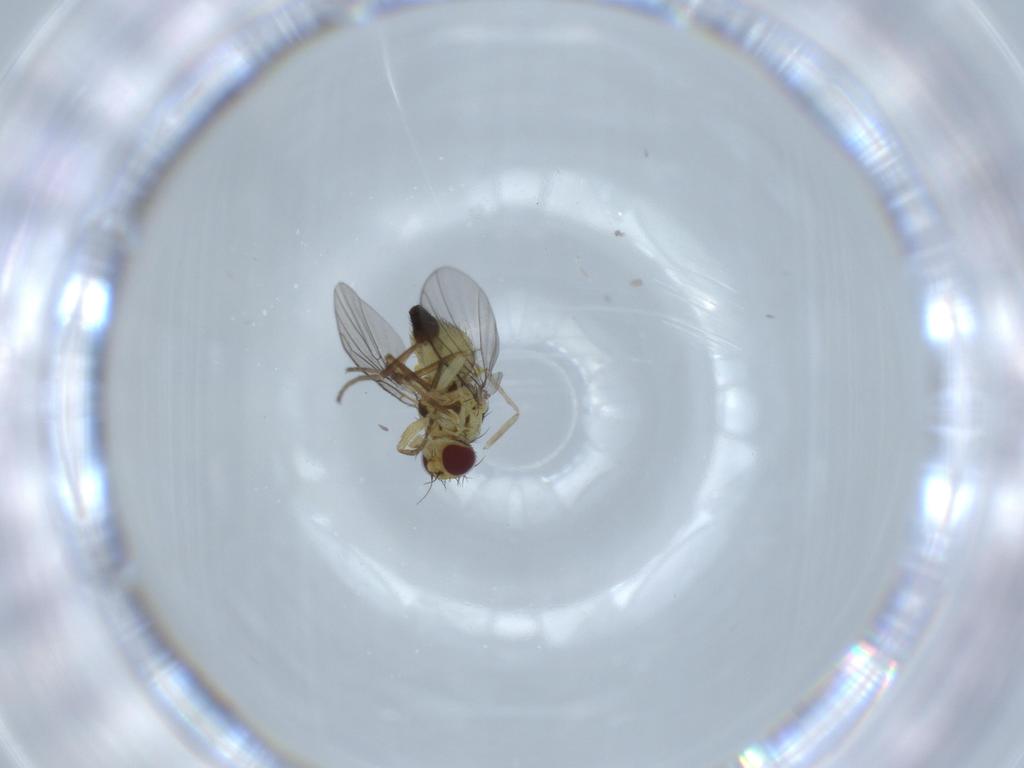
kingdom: Animalia
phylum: Arthropoda
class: Insecta
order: Diptera
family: Agromyzidae
